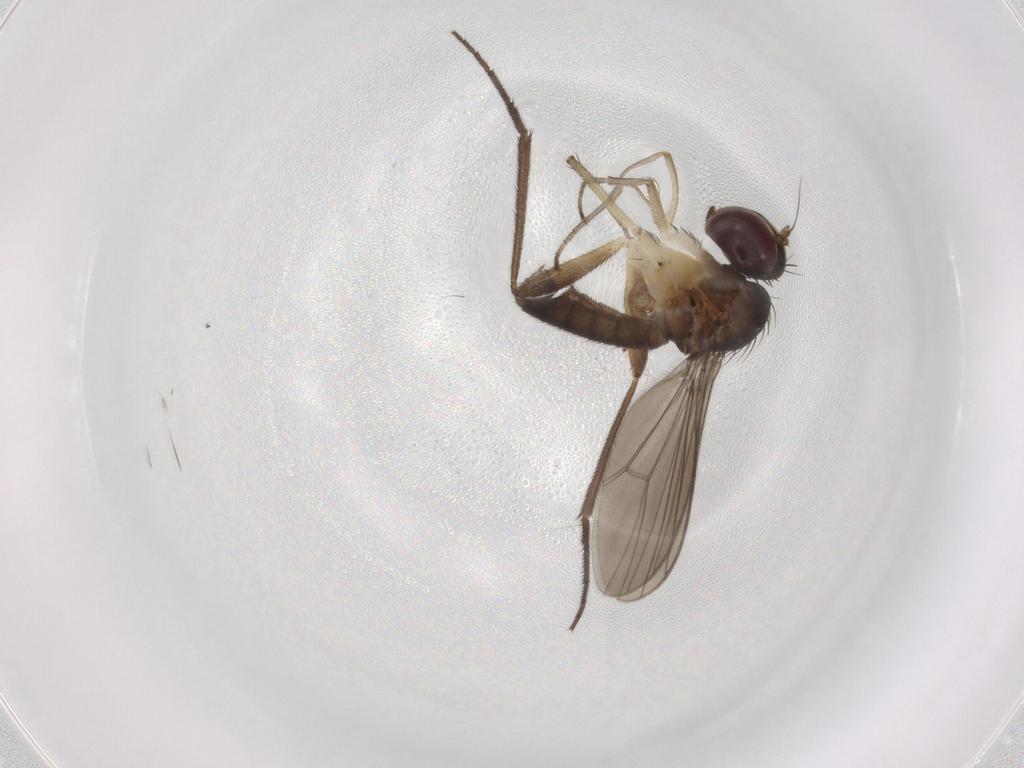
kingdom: Animalia
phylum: Arthropoda
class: Insecta
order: Diptera
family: Dolichopodidae
